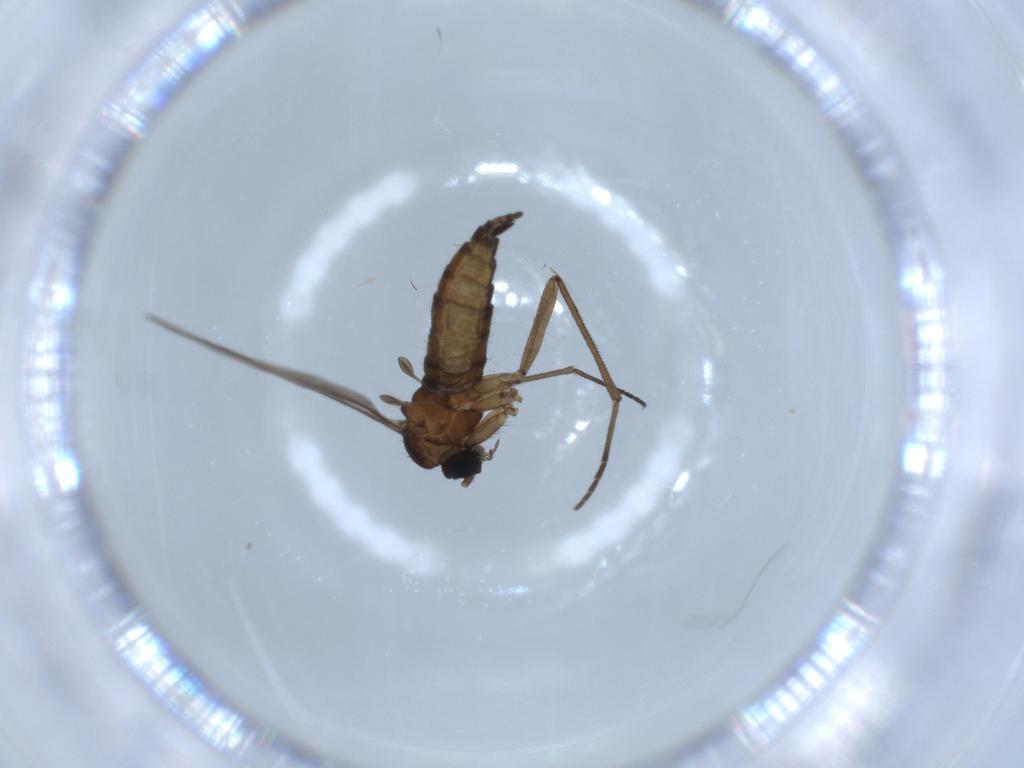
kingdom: Animalia
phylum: Arthropoda
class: Insecta
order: Diptera
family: Sciaridae
